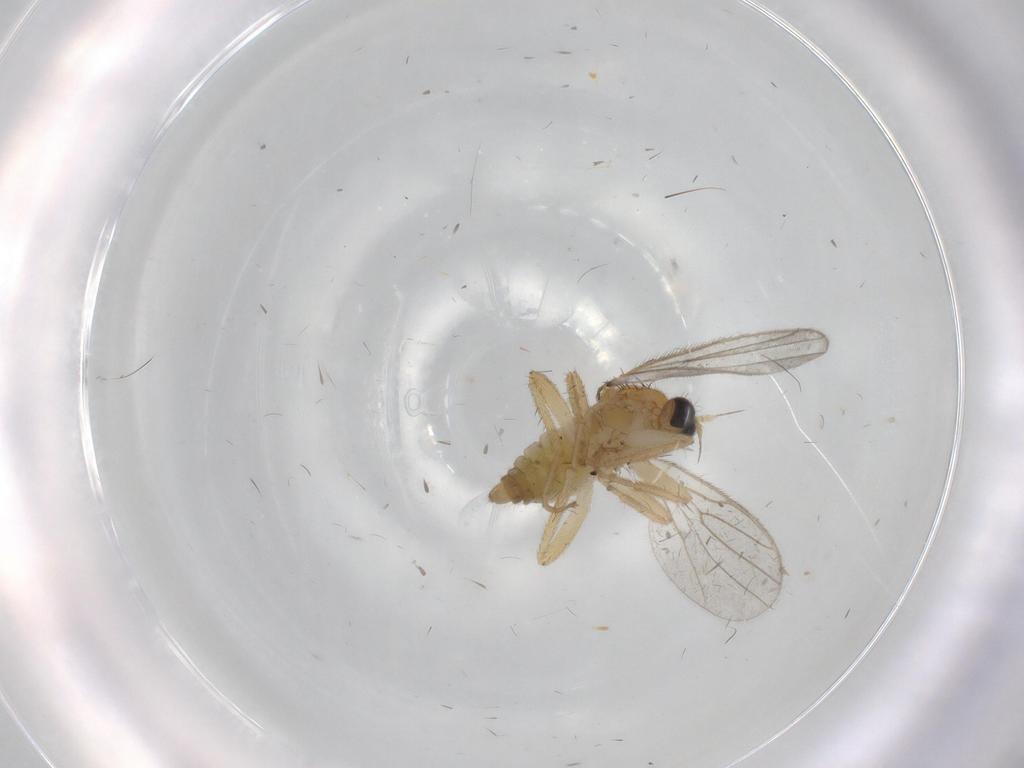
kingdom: Animalia
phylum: Arthropoda
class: Insecta
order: Diptera
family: Hybotidae
